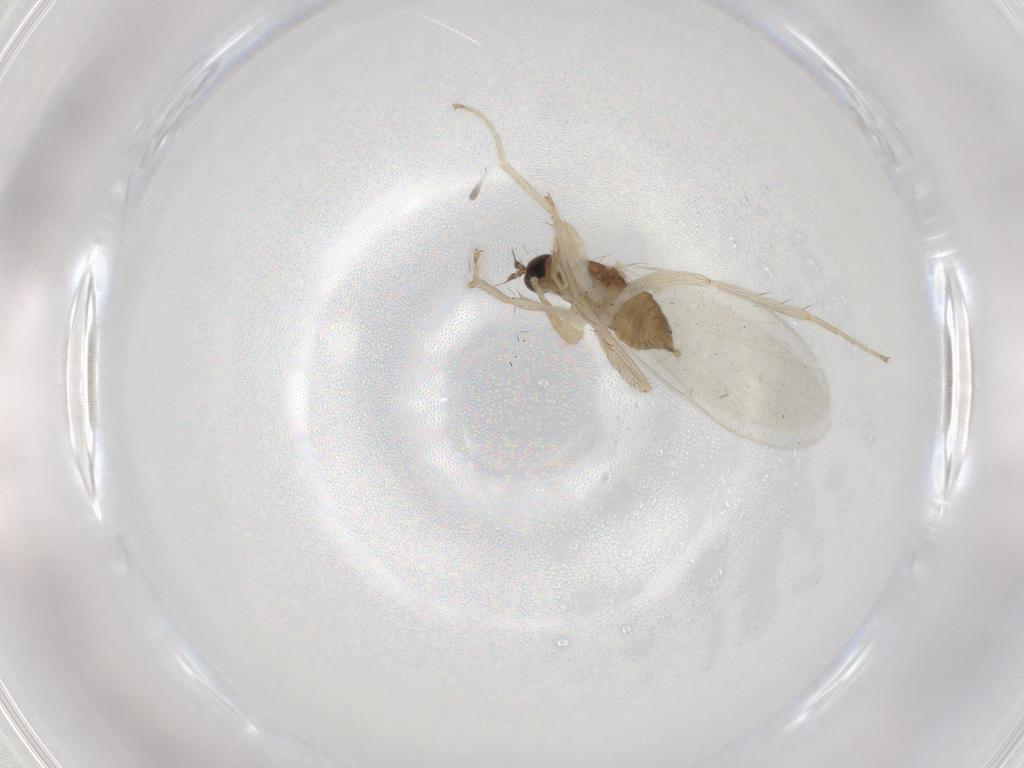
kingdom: Animalia
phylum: Arthropoda
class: Insecta
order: Diptera
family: Hybotidae
